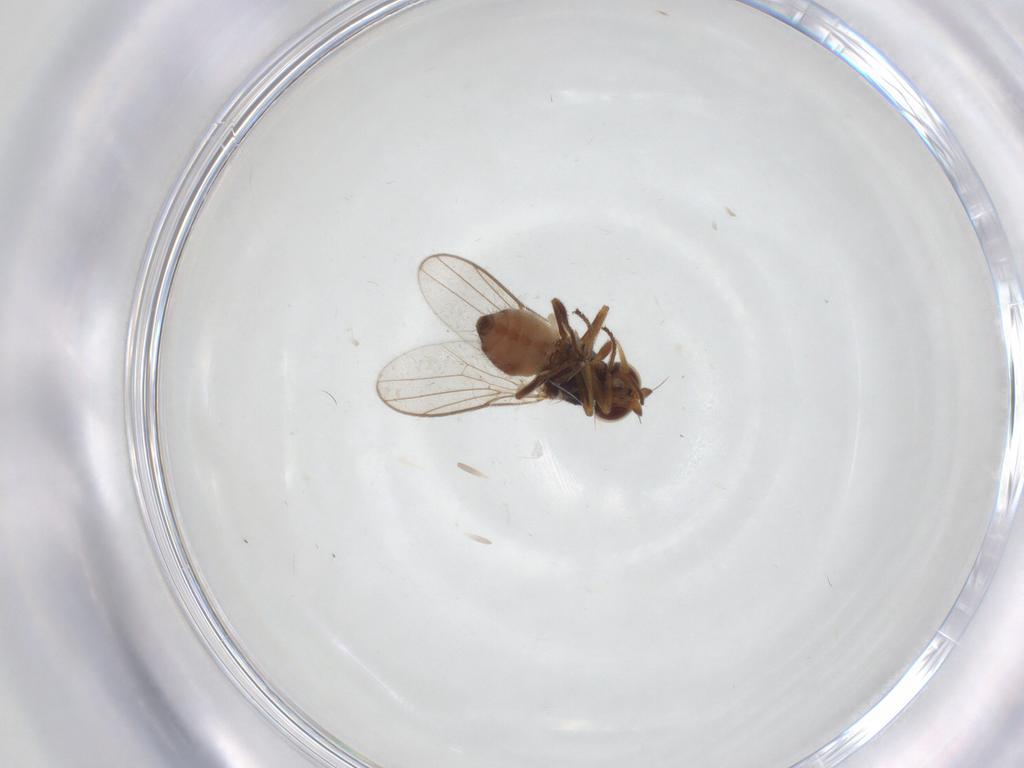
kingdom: Animalia
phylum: Arthropoda
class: Insecta
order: Diptera
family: Chloropidae
